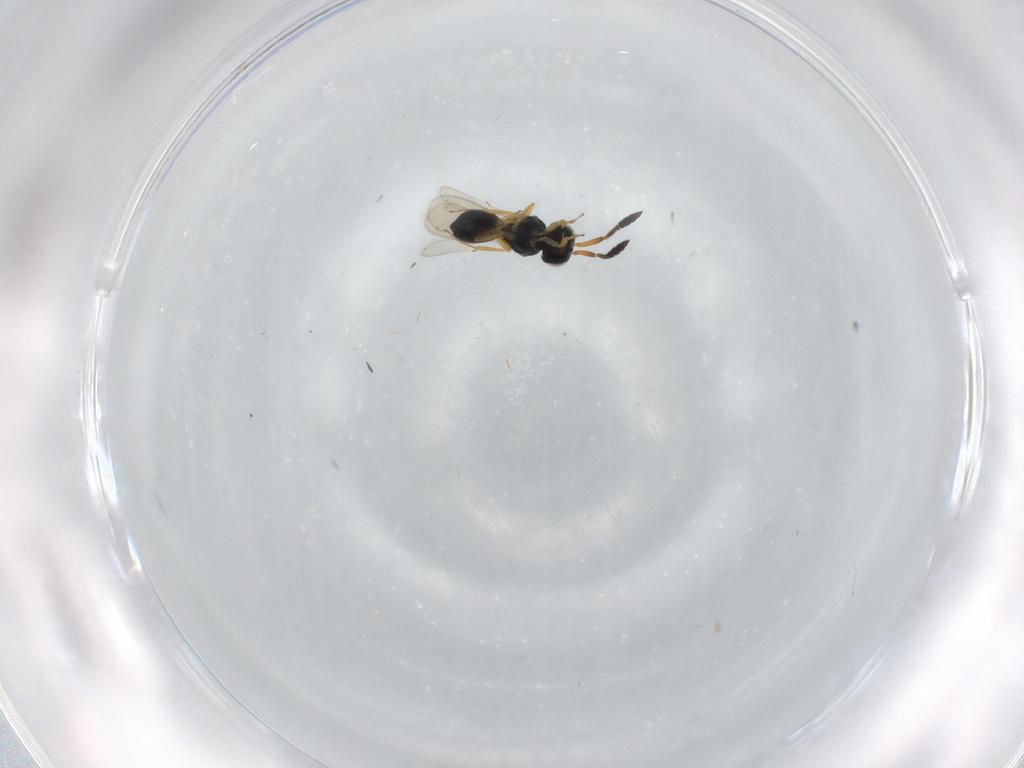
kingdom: Animalia
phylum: Arthropoda
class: Insecta
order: Hymenoptera
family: Scelionidae
